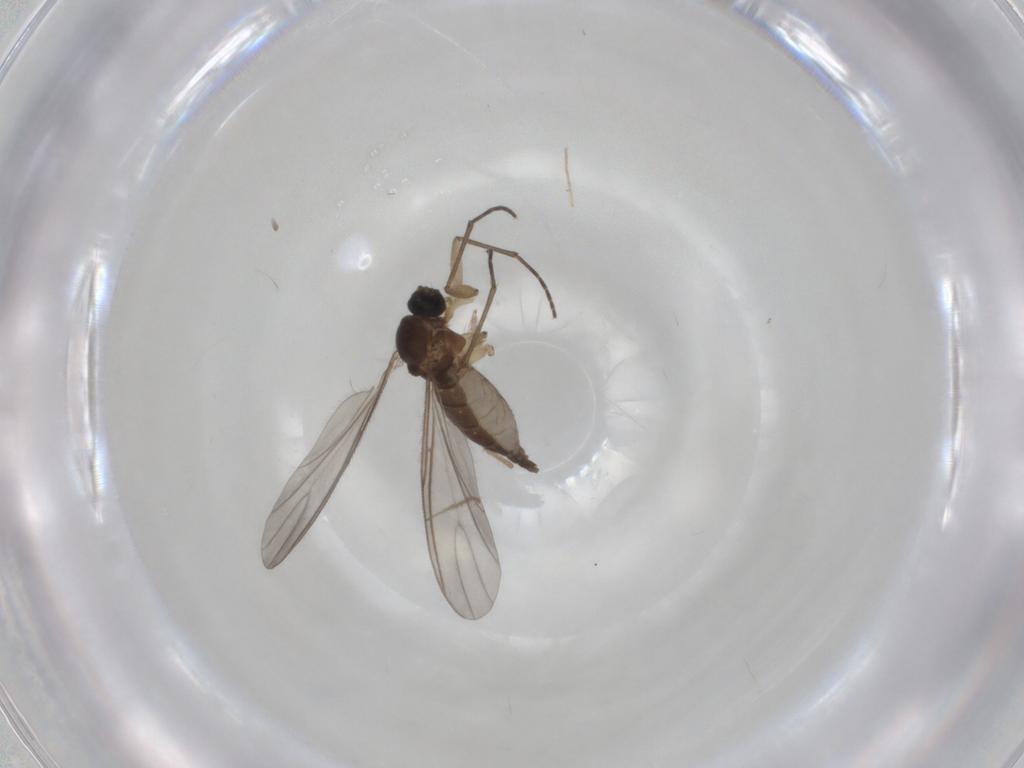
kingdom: Animalia
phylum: Arthropoda
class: Insecta
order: Diptera
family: Sciaridae
